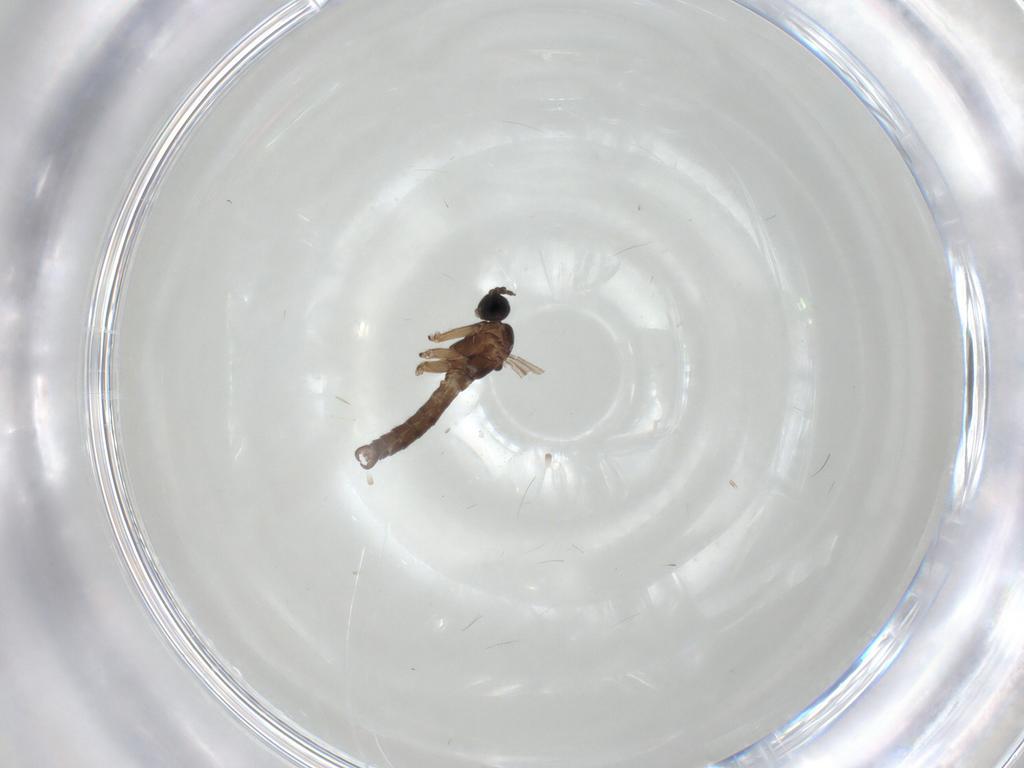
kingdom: Animalia
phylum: Arthropoda
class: Insecta
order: Diptera
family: Sciaridae
